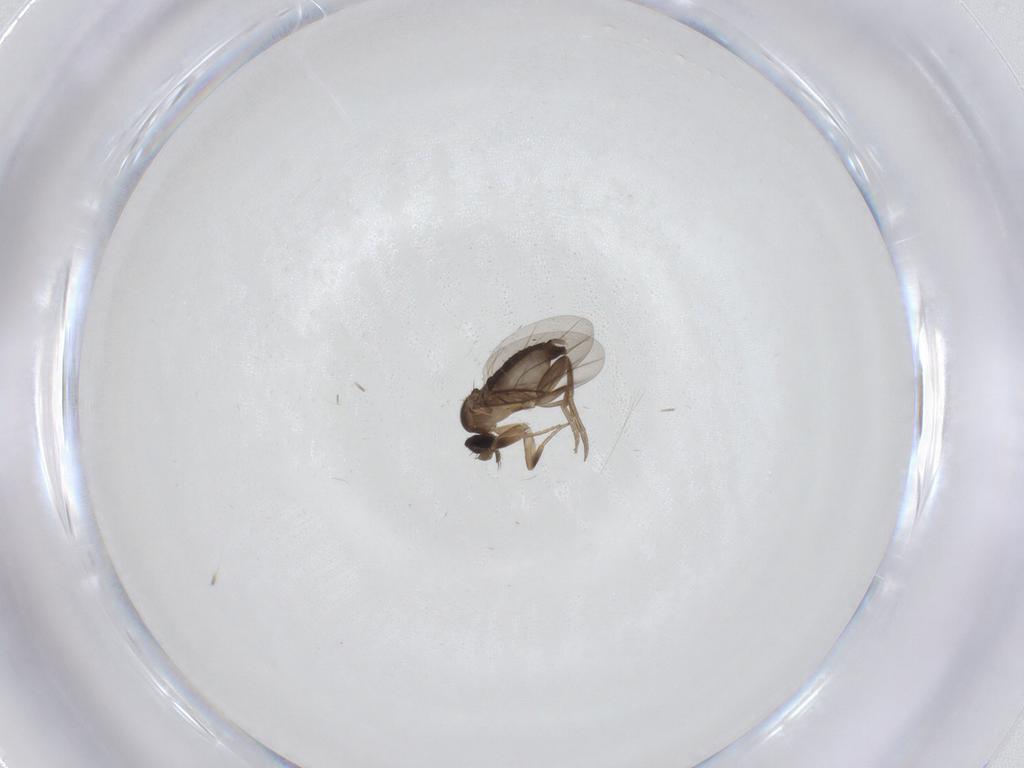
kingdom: Animalia
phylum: Arthropoda
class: Insecta
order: Diptera
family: Phoridae
